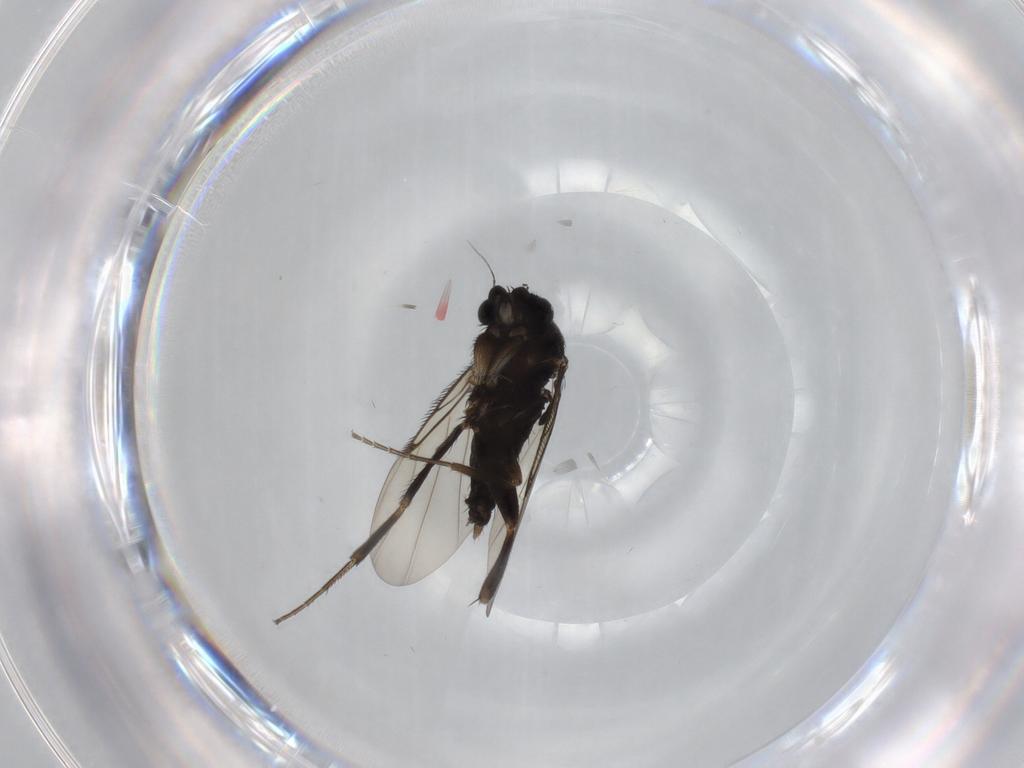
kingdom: Animalia
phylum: Arthropoda
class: Insecta
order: Diptera
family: Phoridae
